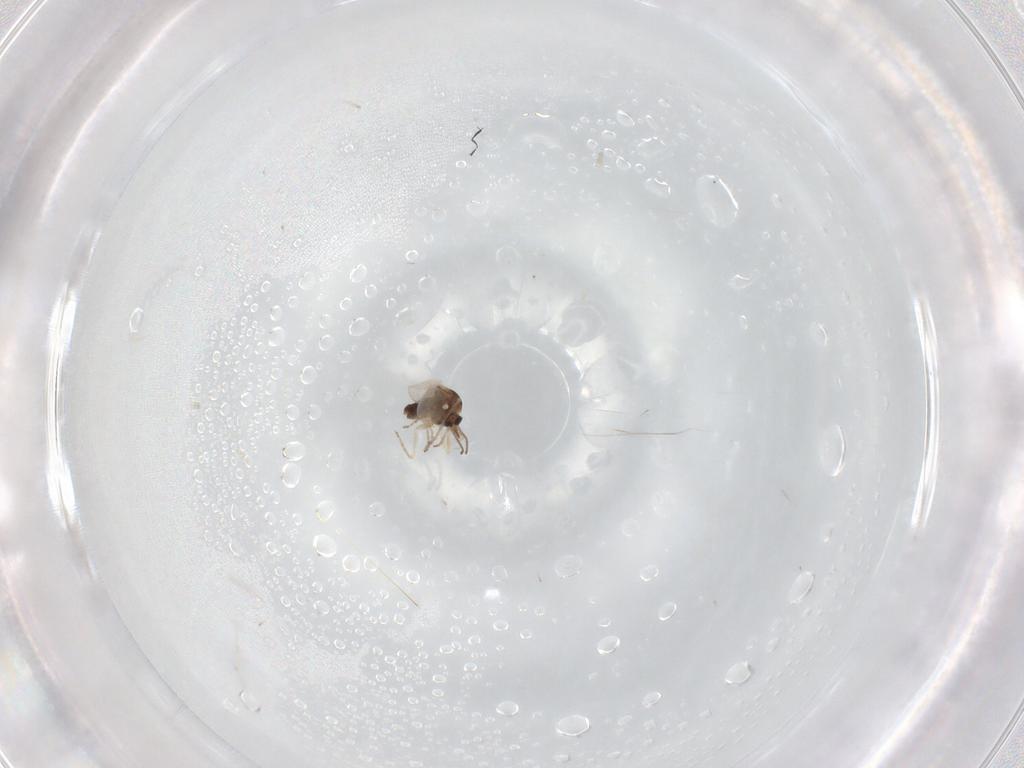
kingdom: Animalia
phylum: Arthropoda
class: Insecta
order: Diptera
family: Ceratopogonidae
